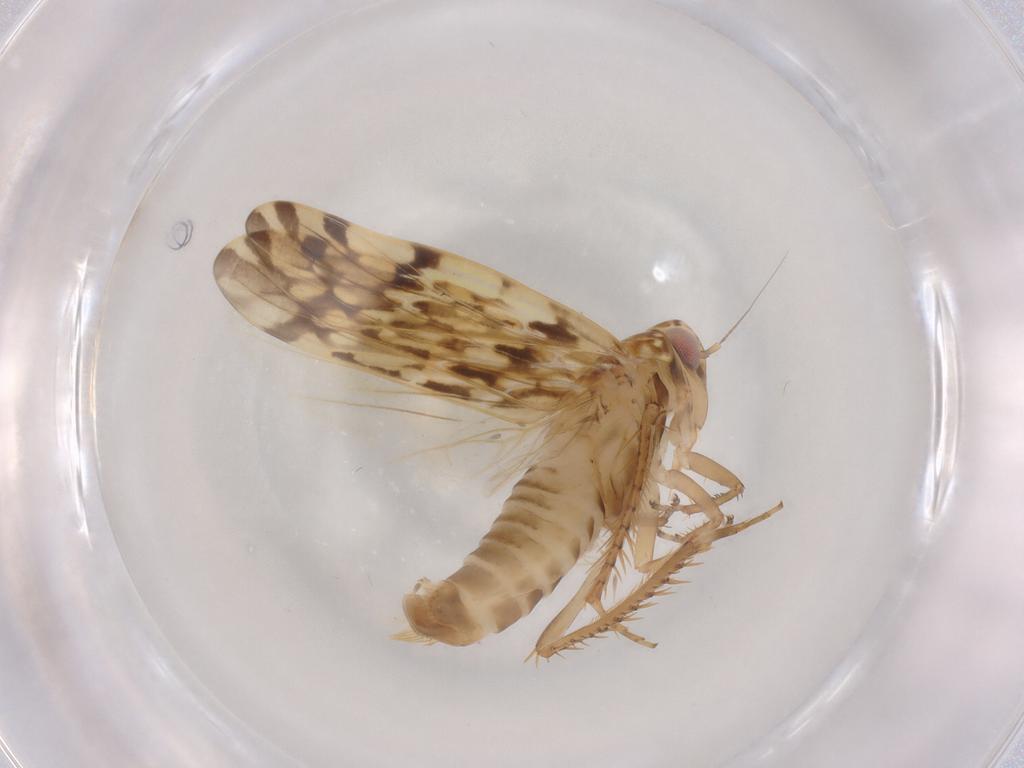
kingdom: Animalia
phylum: Arthropoda
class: Insecta
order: Hemiptera
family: Cicadellidae
